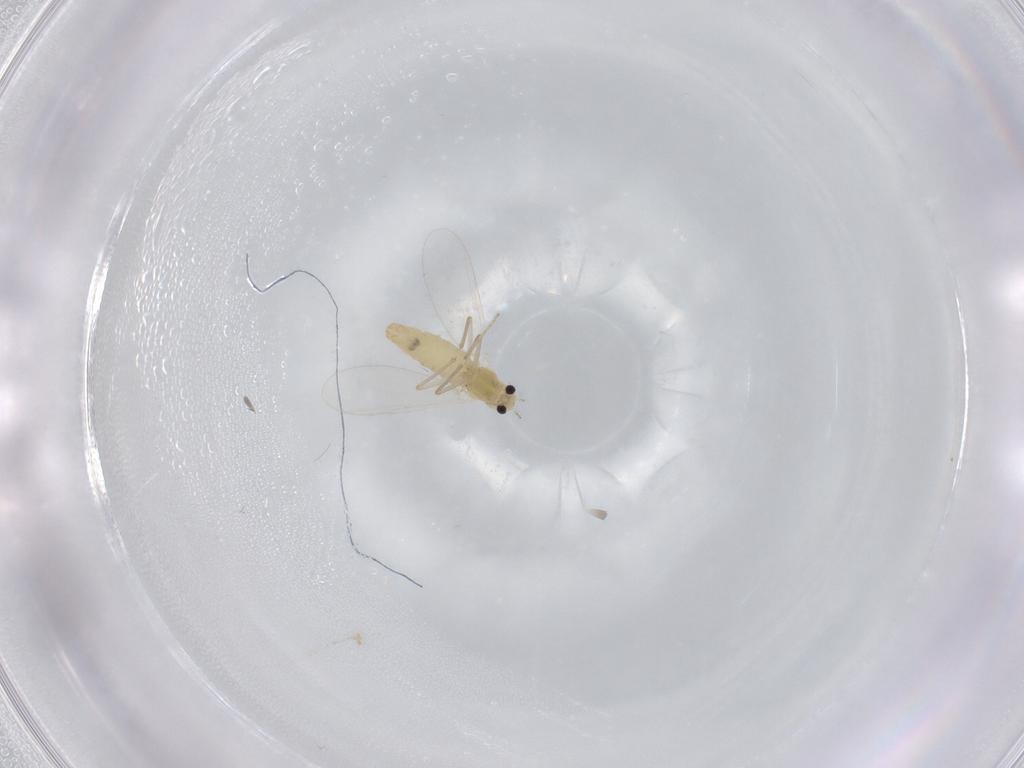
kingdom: Animalia
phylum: Arthropoda
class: Insecta
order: Diptera
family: Chironomidae
